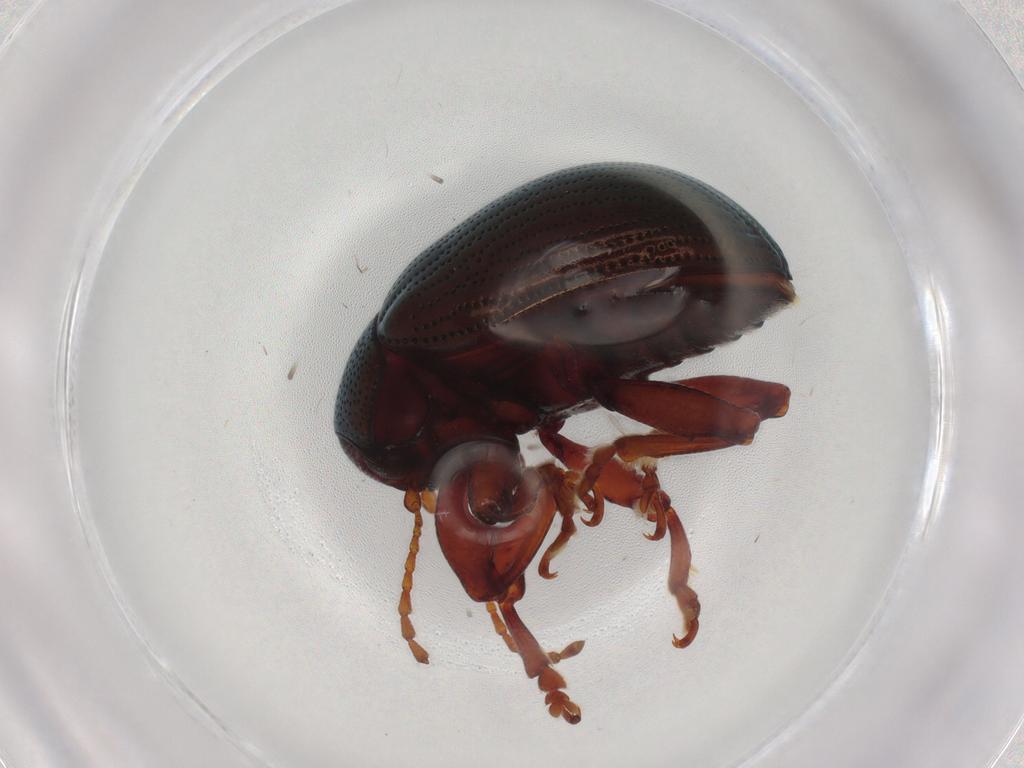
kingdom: Animalia
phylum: Arthropoda
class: Insecta
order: Coleoptera
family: Chrysomelidae
